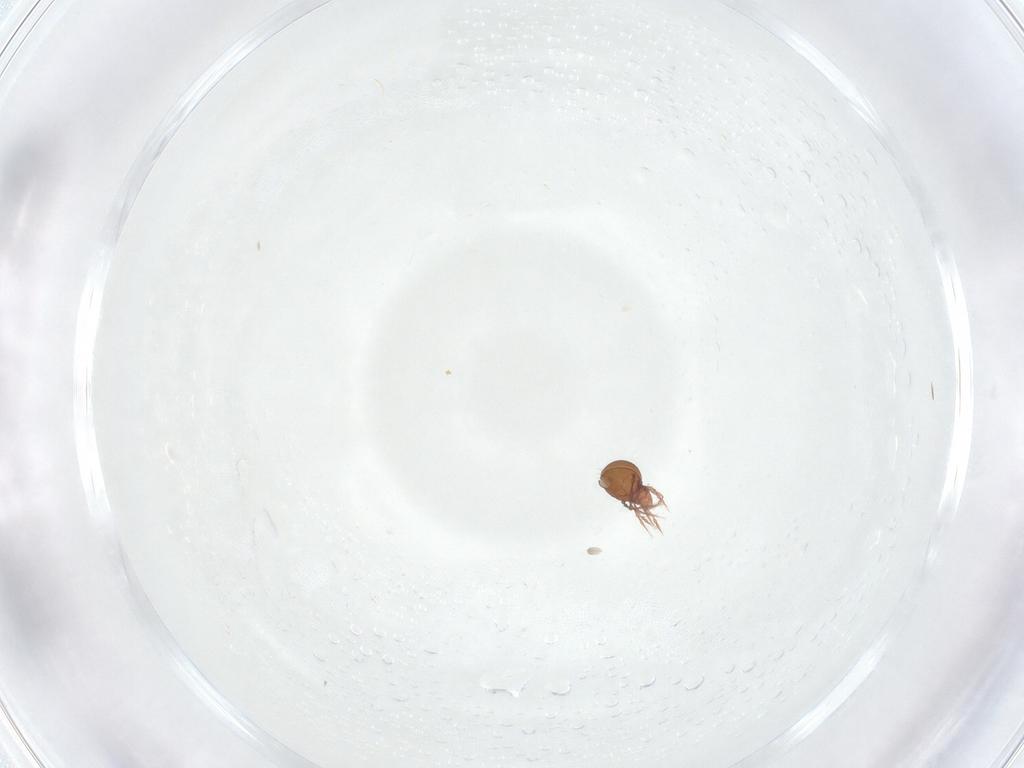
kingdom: Animalia
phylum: Arthropoda
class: Arachnida
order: Sarcoptiformes
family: Oppiidae
